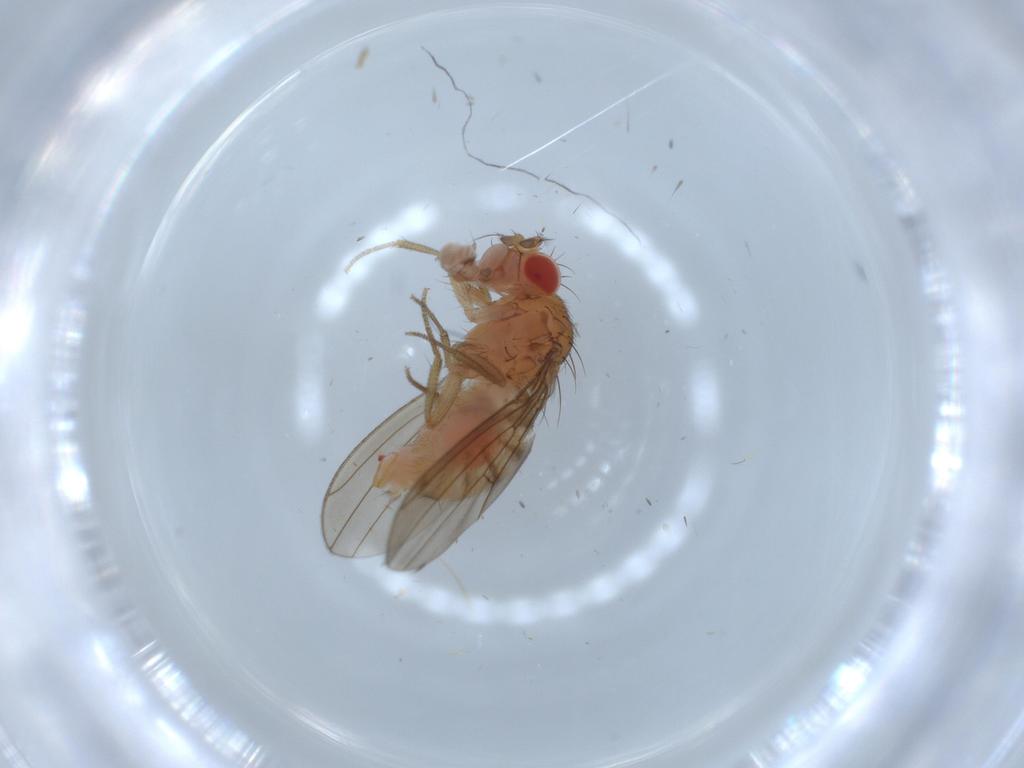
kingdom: Animalia
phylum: Arthropoda
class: Insecta
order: Diptera
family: Drosophilidae
